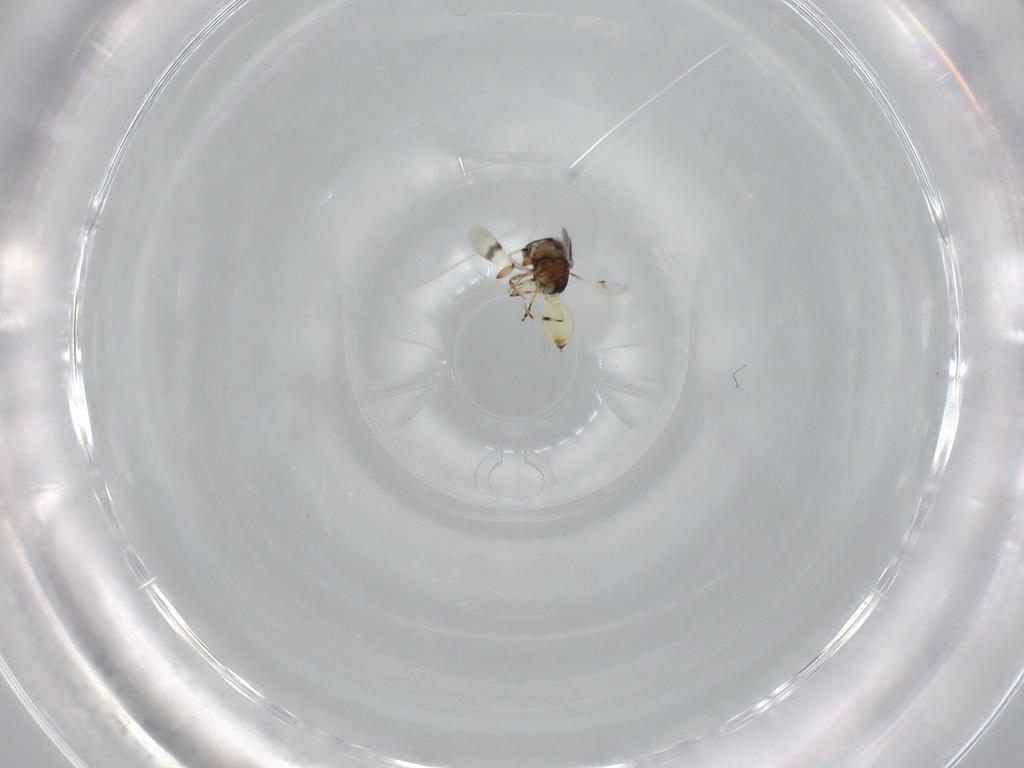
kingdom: Animalia
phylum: Arthropoda
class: Insecta
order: Hymenoptera
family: Scelionidae
